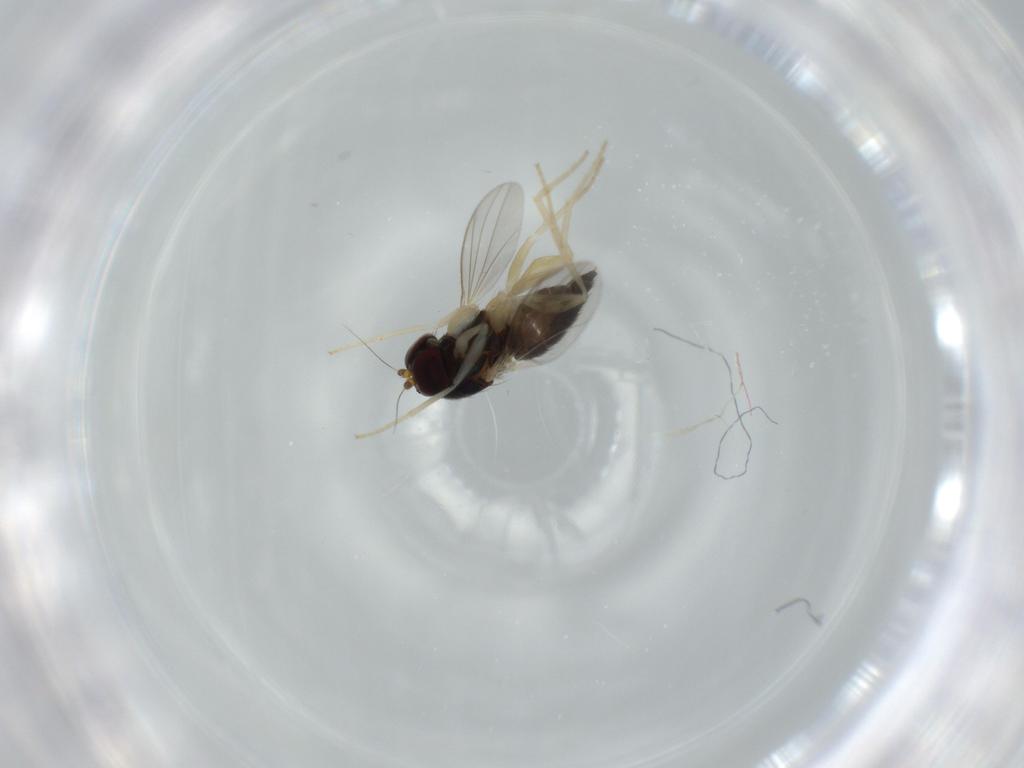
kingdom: Animalia
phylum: Arthropoda
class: Insecta
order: Diptera
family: Dolichopodidae
